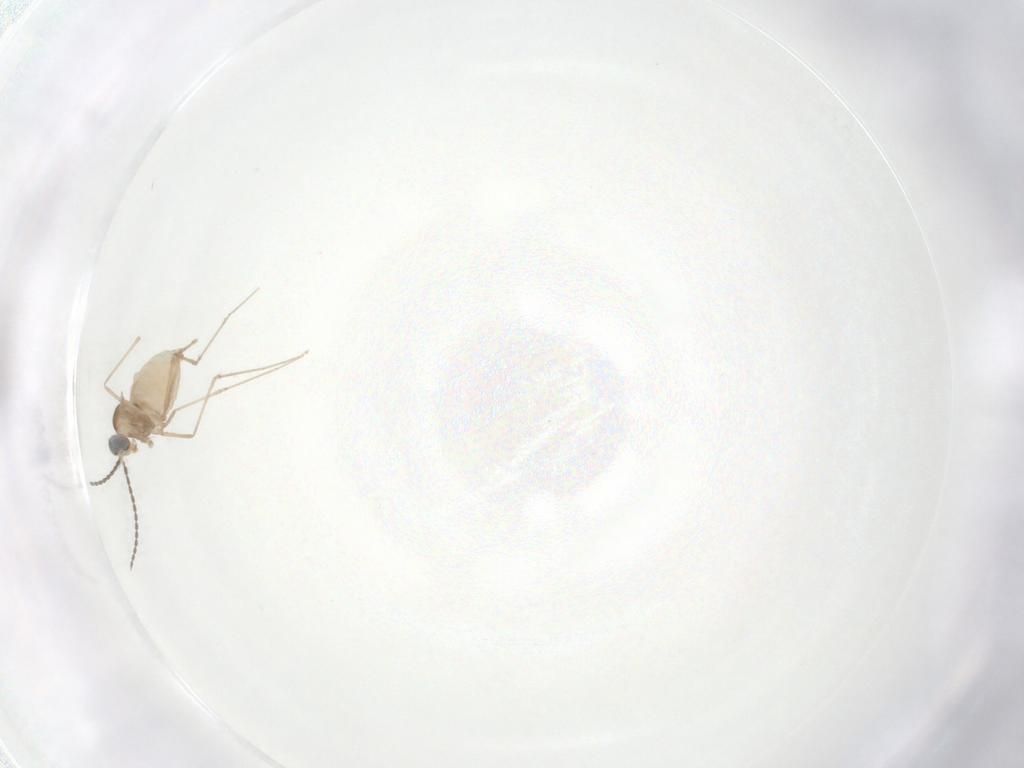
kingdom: Animalia
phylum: Arthropoda
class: Insecta
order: Diptera
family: Cecidomyiidae
